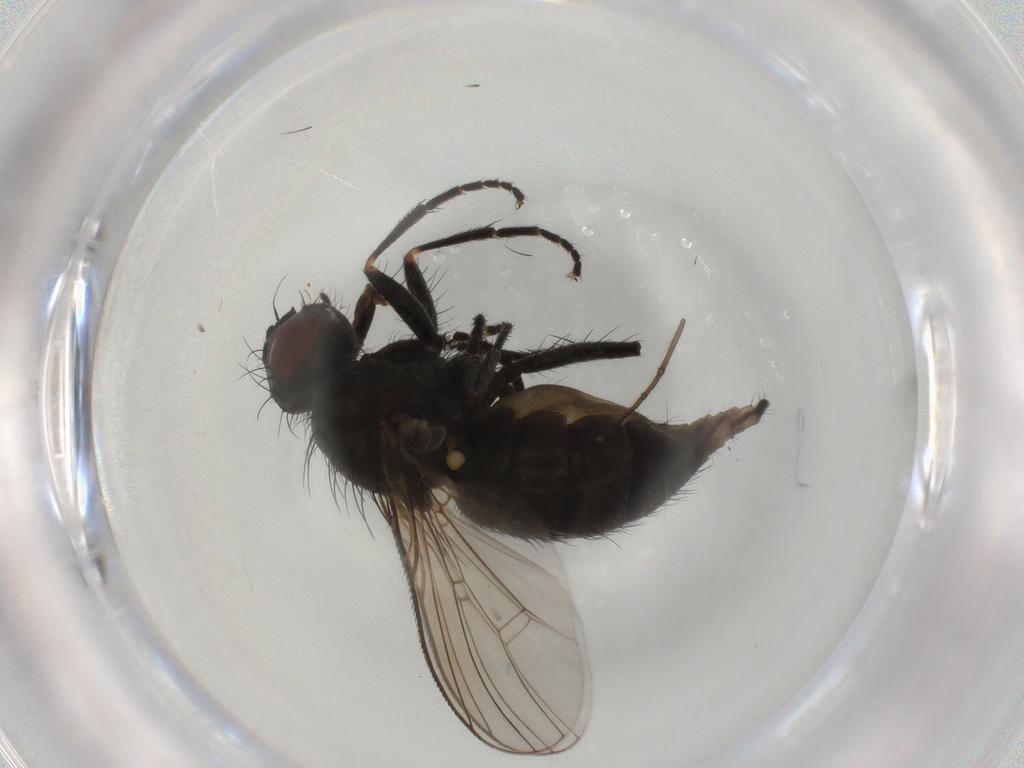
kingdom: Animalia
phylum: Arthropoda
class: Insecta
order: Diptera
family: Muscidae
